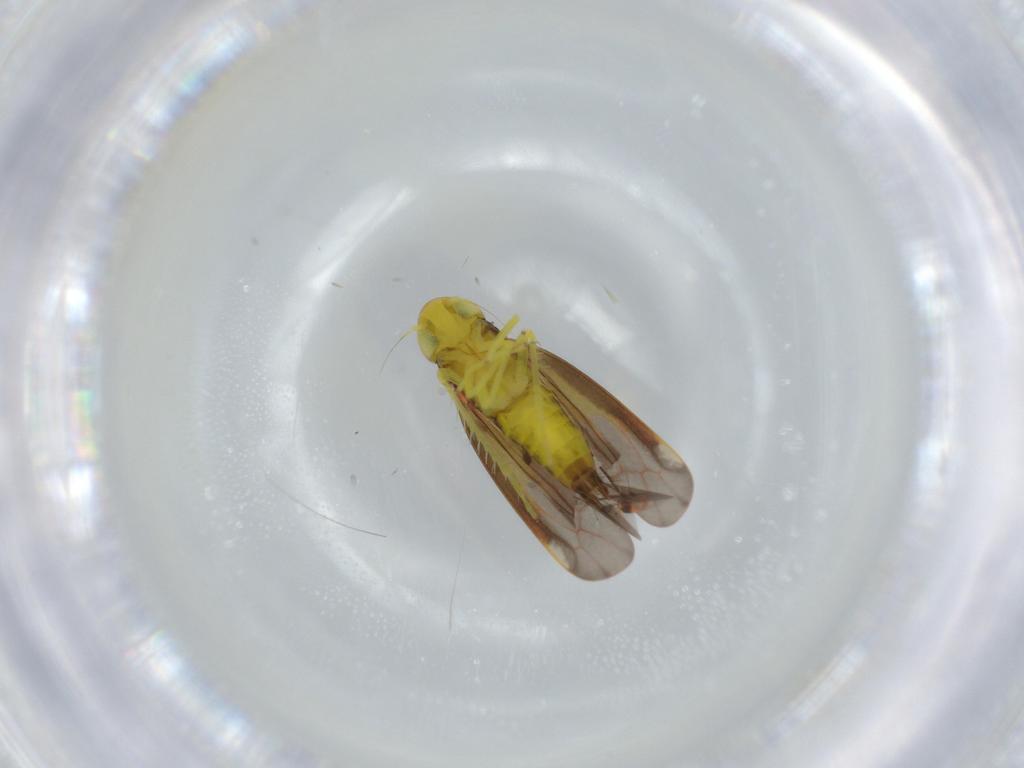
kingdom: Animalia
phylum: Arthropoda
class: Insecta
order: Hemiptera
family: Cicadellidae
